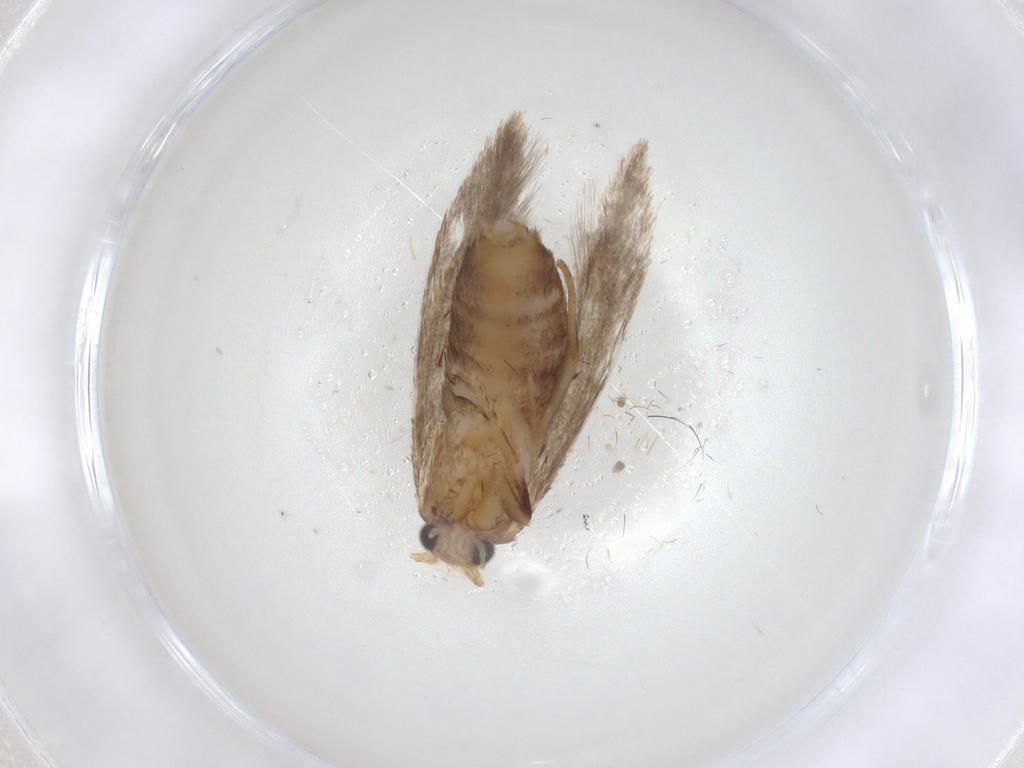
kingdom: Animalia
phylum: Arthropoda
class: Insecta
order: Lepidoptera
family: Tineidae
